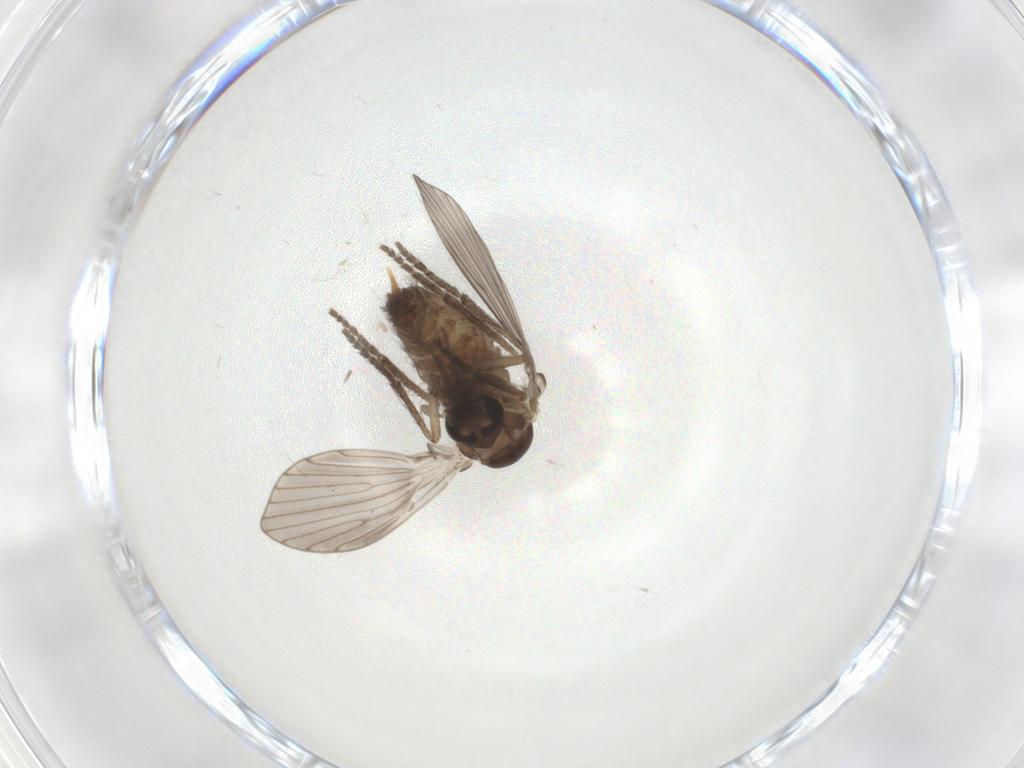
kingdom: Animalia
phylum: Arthropoda
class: Insecta
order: Diptera
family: Psychodidae
